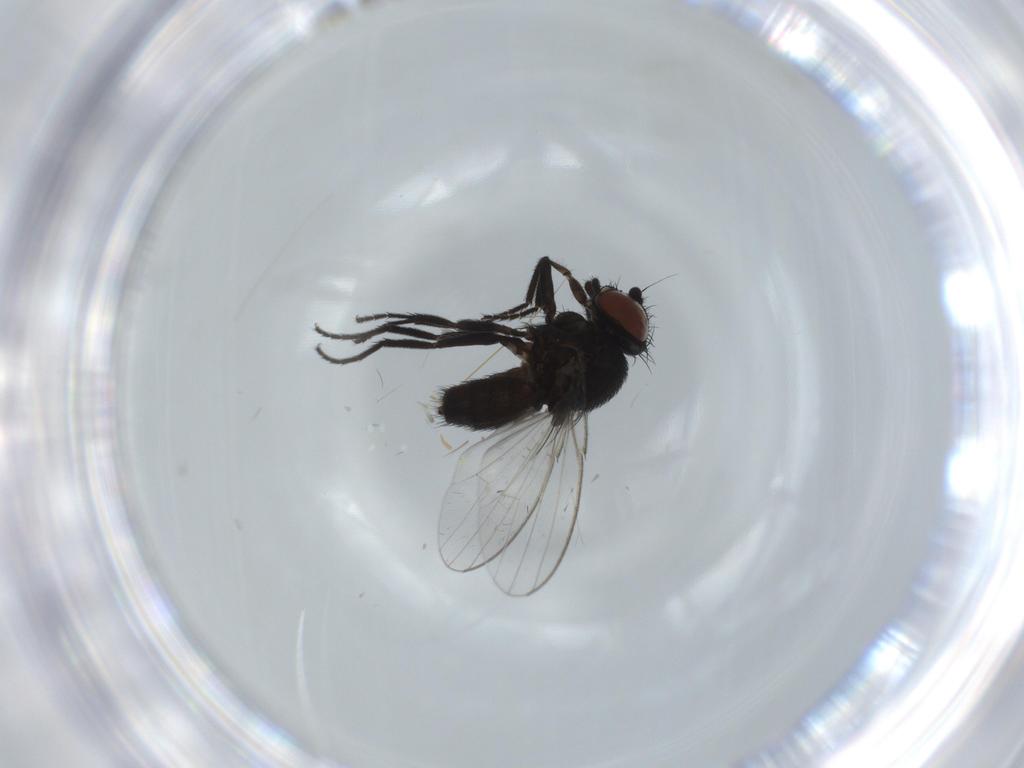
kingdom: Animalia
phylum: Arthropoda
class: Insecta
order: Diptera
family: Milichiidae
